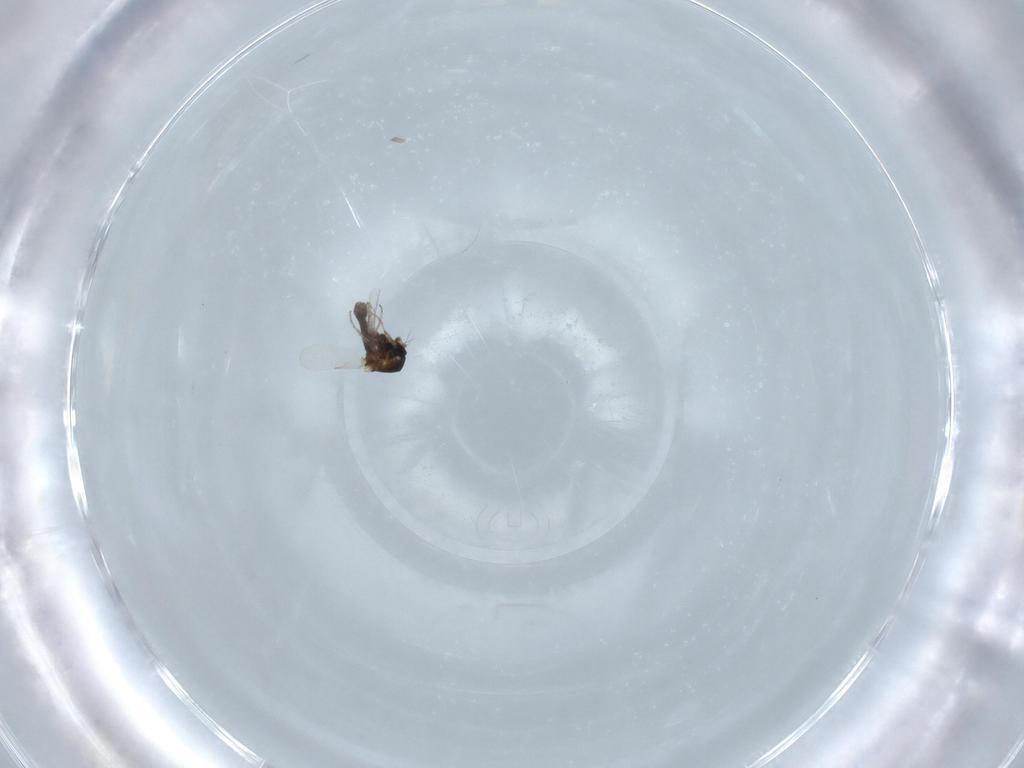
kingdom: Animalia
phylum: Arthropoda
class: Insecta
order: Diptera
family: Ceratopogonidae
